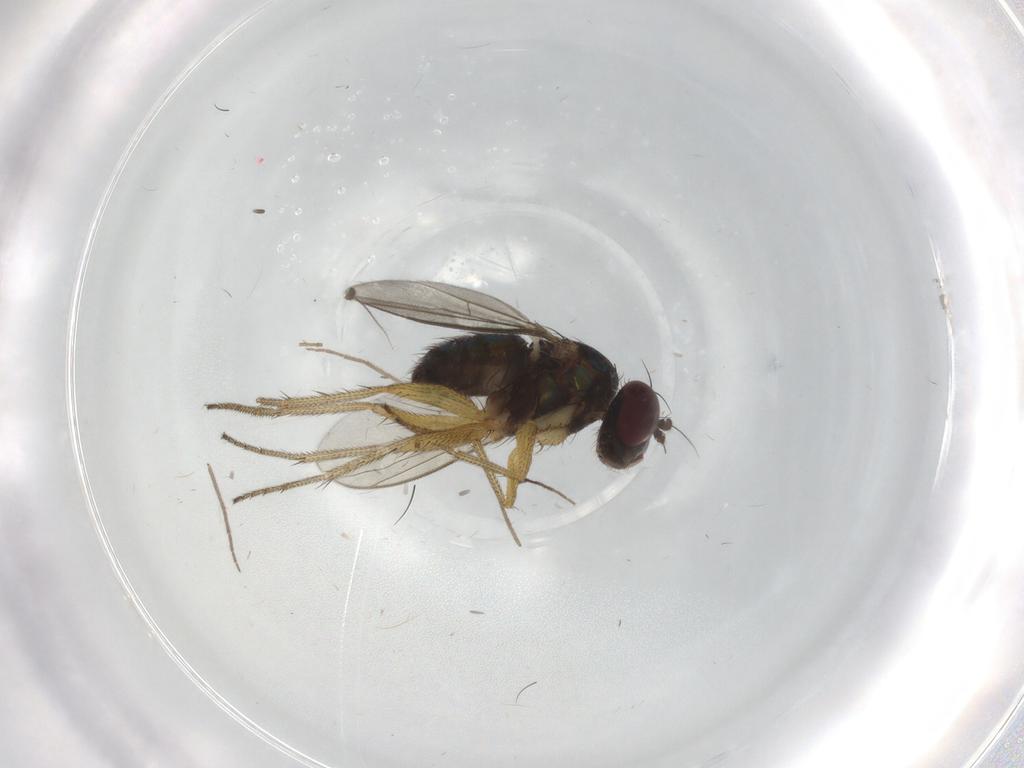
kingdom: Animalia
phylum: Arthropoda
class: Insecta
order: Diptera
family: Dolichopodidae
